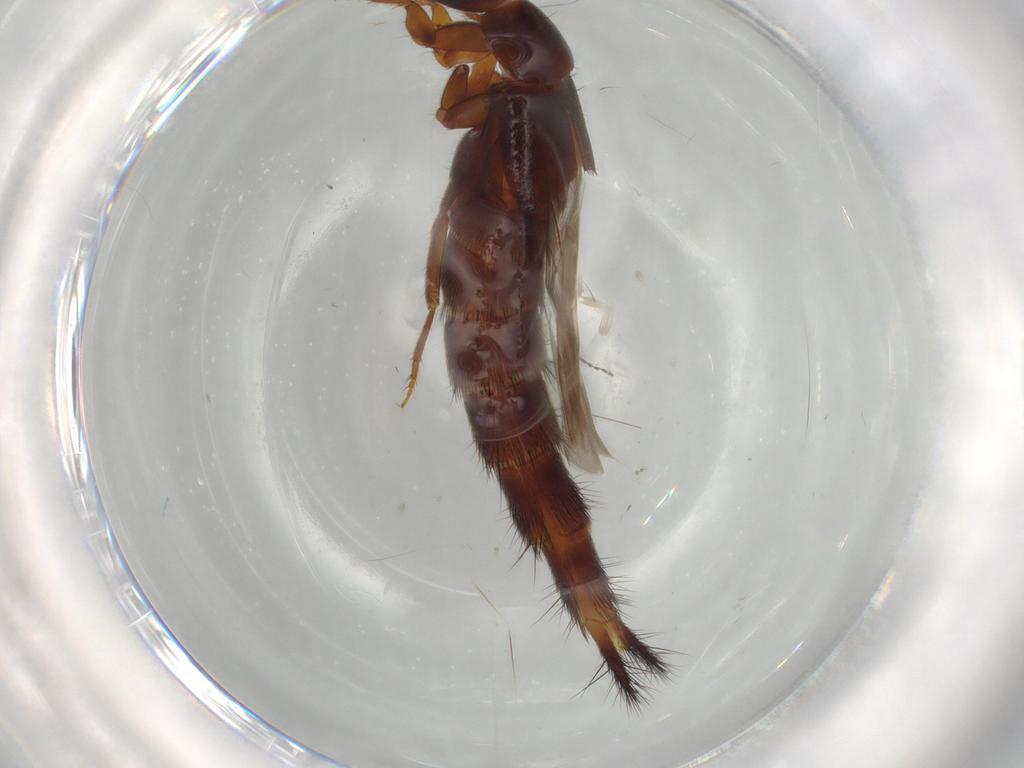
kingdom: Animalia
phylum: Arthropoda
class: Insecta
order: Coleoptera
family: Staphylinidae
